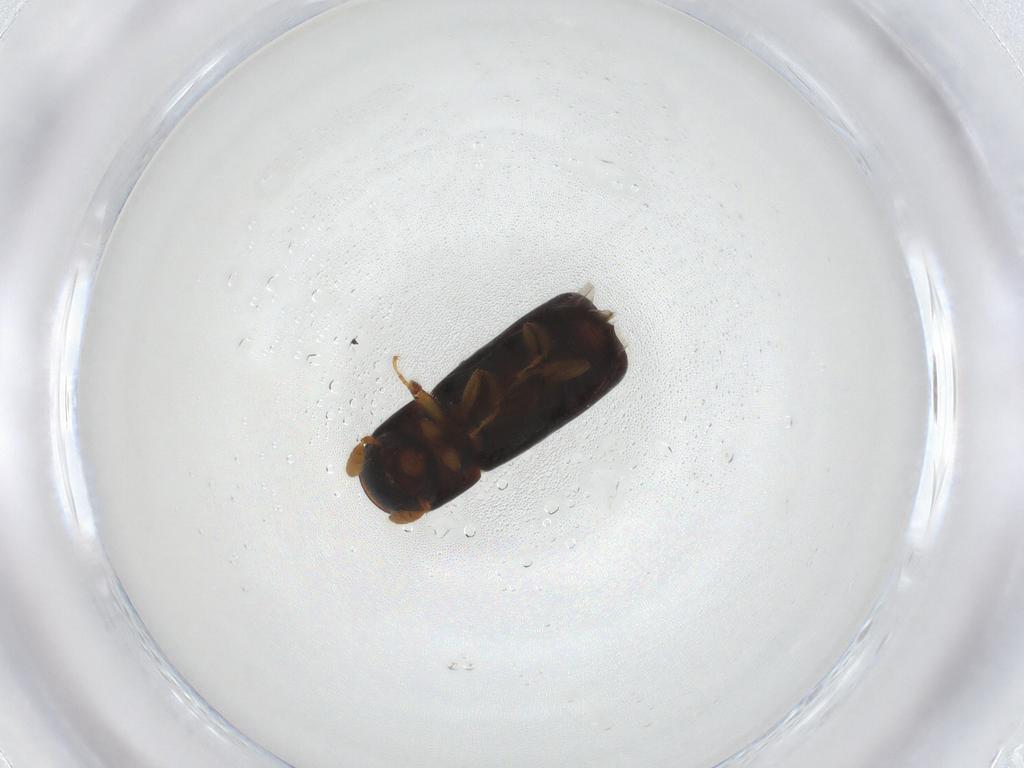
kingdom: Animalia
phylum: Arthropoda
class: Insecta
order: Coleoptera
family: Curculionidae
